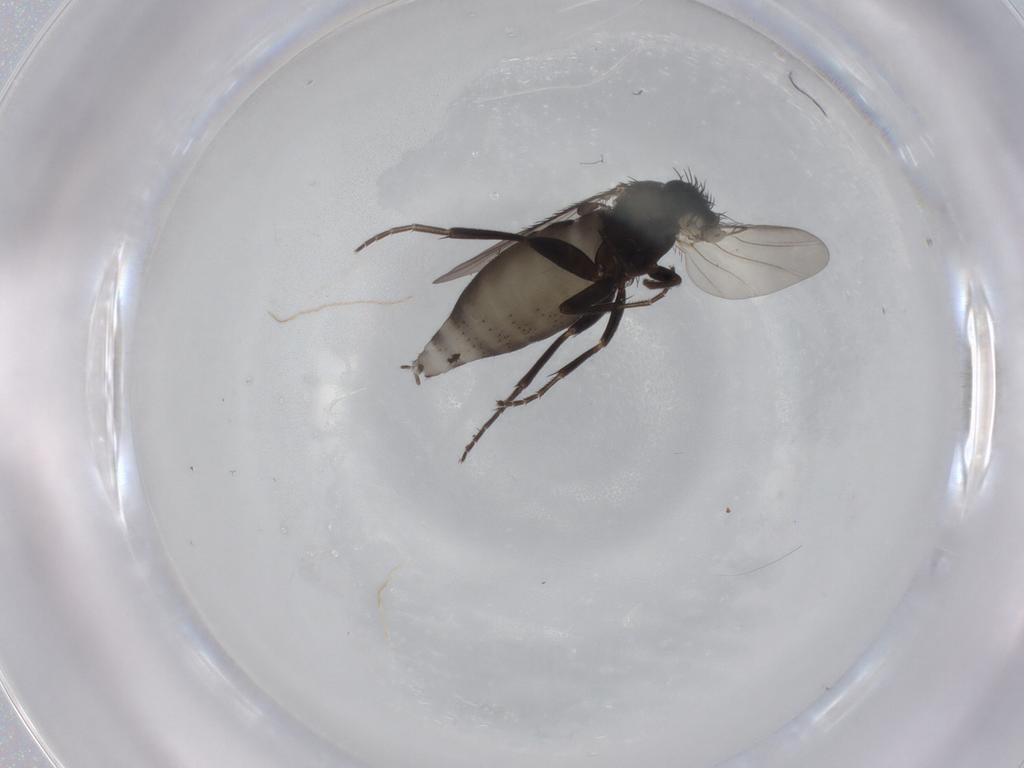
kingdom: Animalia
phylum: Arthropoda
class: Insecta
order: Diptera
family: Phoridae
